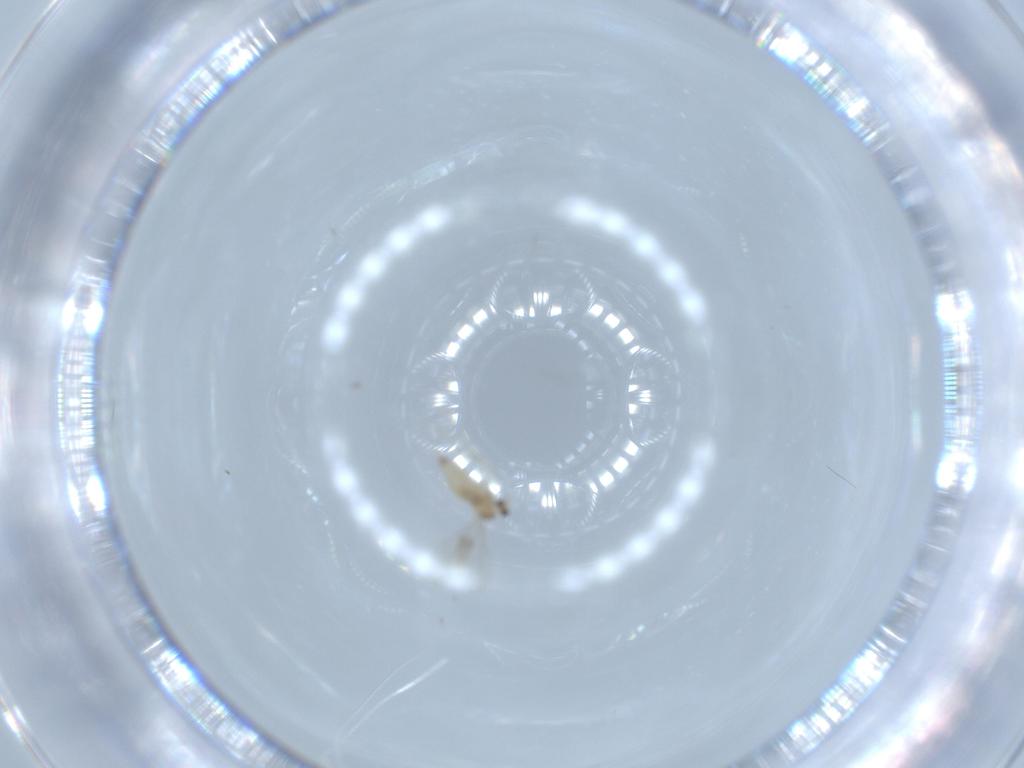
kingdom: Animalia
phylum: Arthropoda
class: Insecta
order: Diptera
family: Cecidomyiidae
